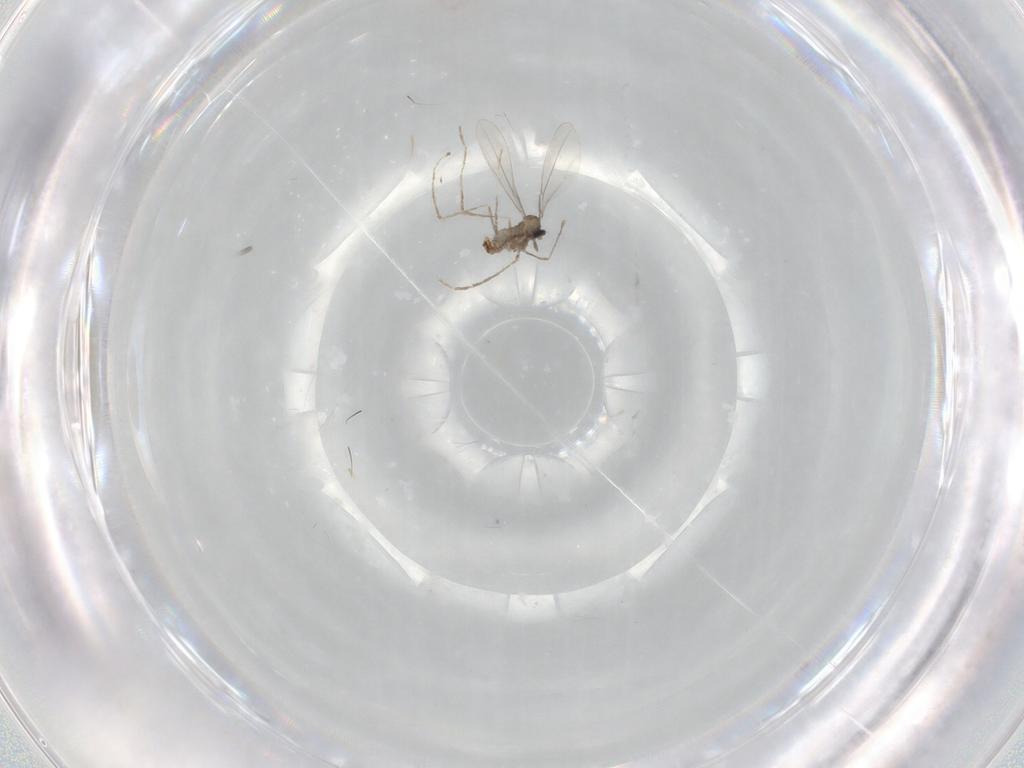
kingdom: Animalia
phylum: Arthropoda
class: Insecta
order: Diptera
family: Cecidomyiidae
